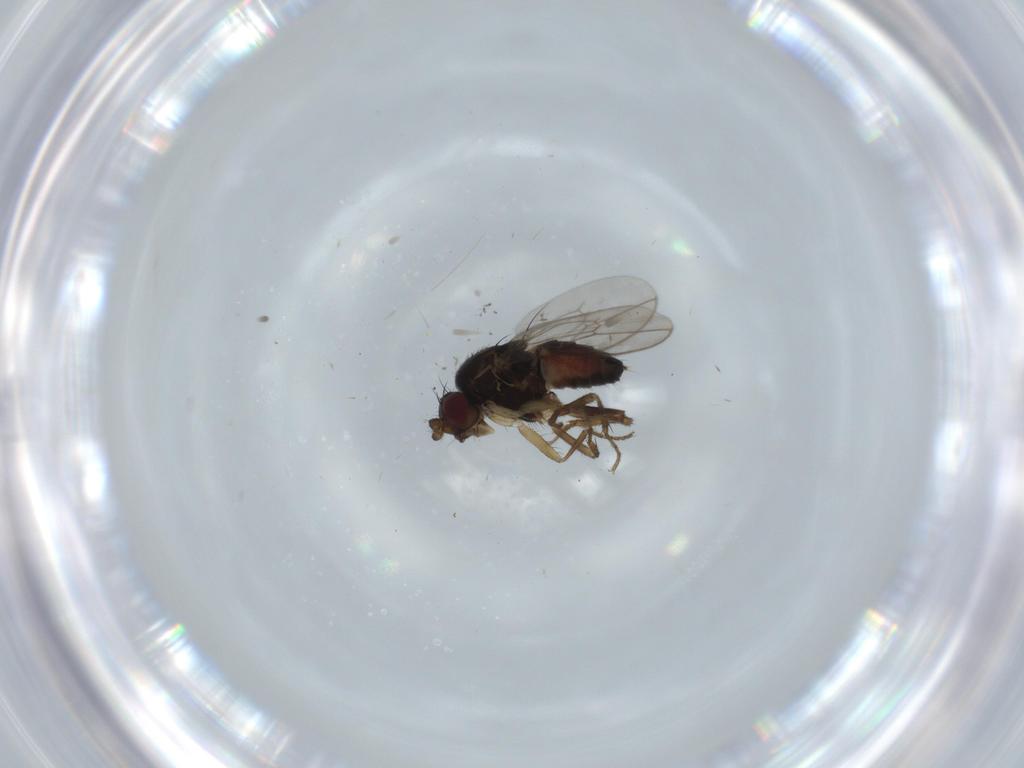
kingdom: Animalia
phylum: Arthropoda
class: Insecta
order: Diptera
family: Sphaeroceridae
